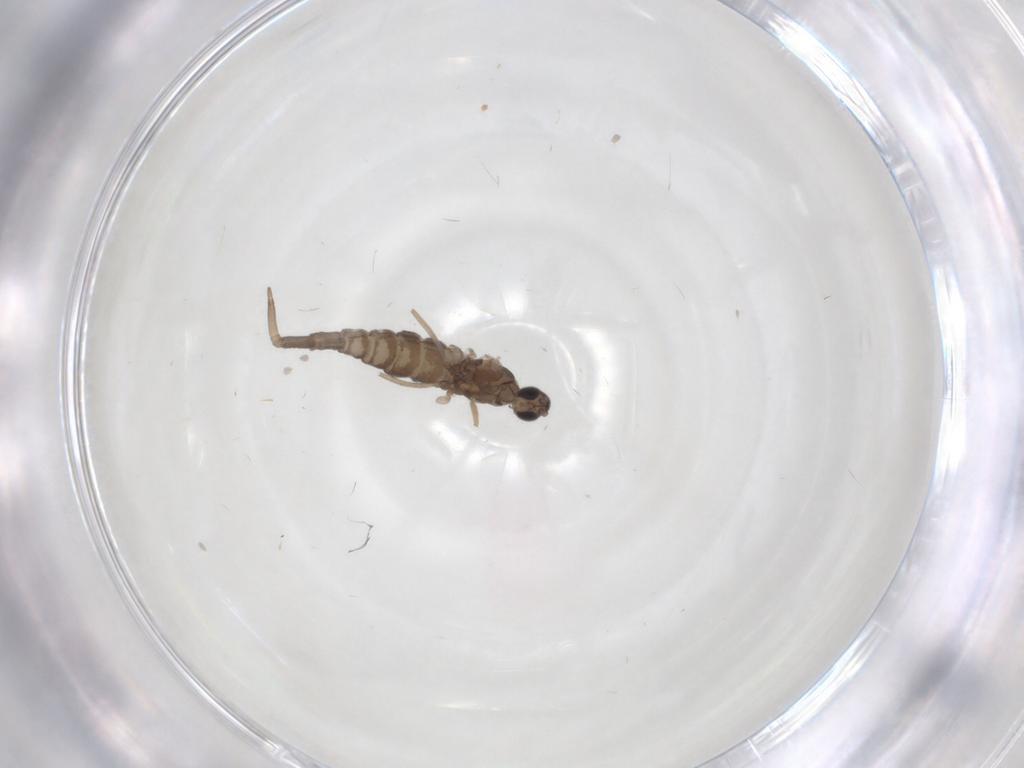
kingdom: Animalia
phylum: Arthropoda
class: Insecta
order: Diptera
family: Cecidomyiidae
